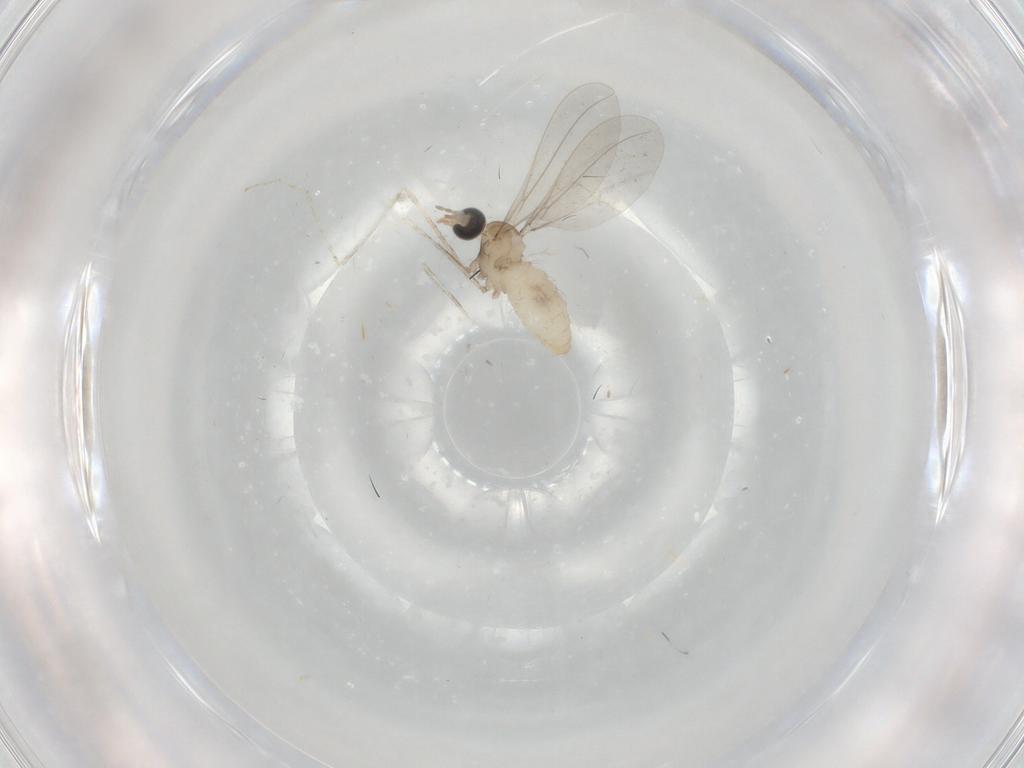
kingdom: Animalia
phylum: Arthropoda
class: Insecta
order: Diptera
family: Cecidomyiidae
